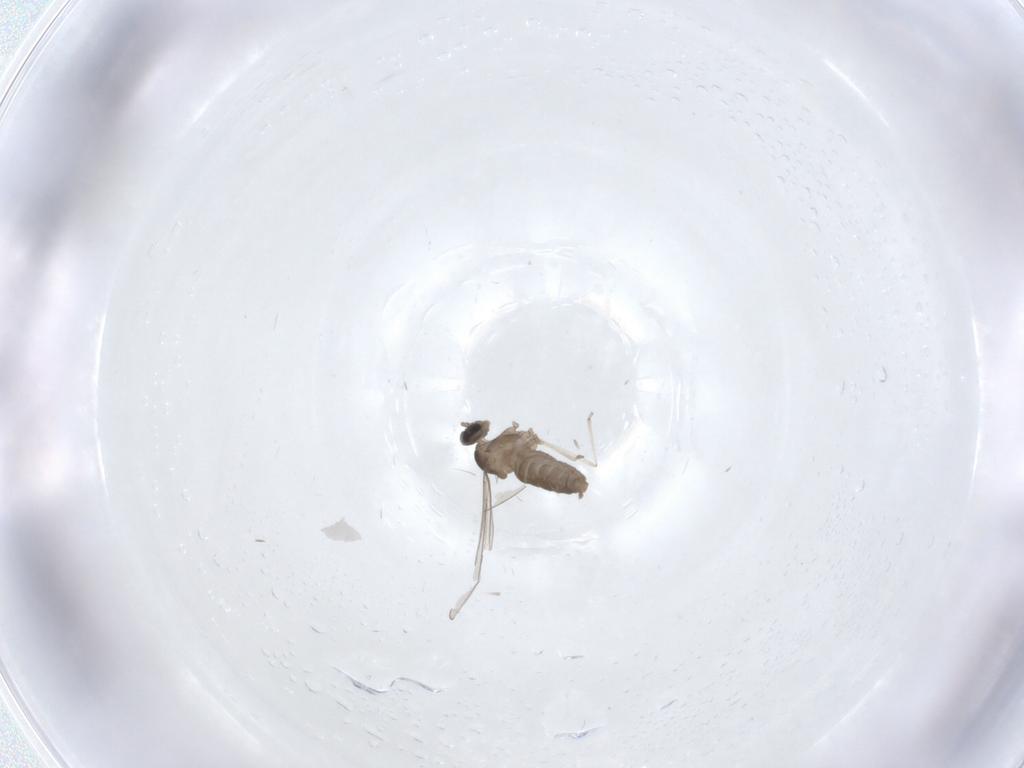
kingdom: Animalia
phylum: Arthropoda
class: Insecta
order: Diptera
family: Cecidomyiidae
